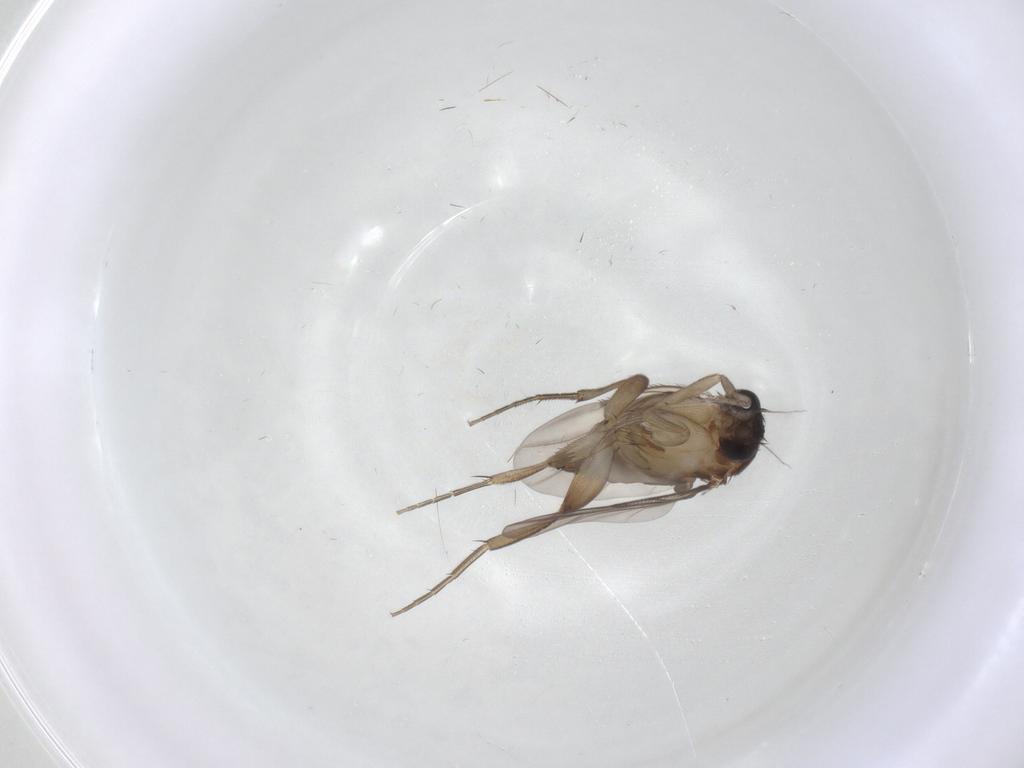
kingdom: Animalia
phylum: Arthropoda
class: Insecta
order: Diptera
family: Phoridae
